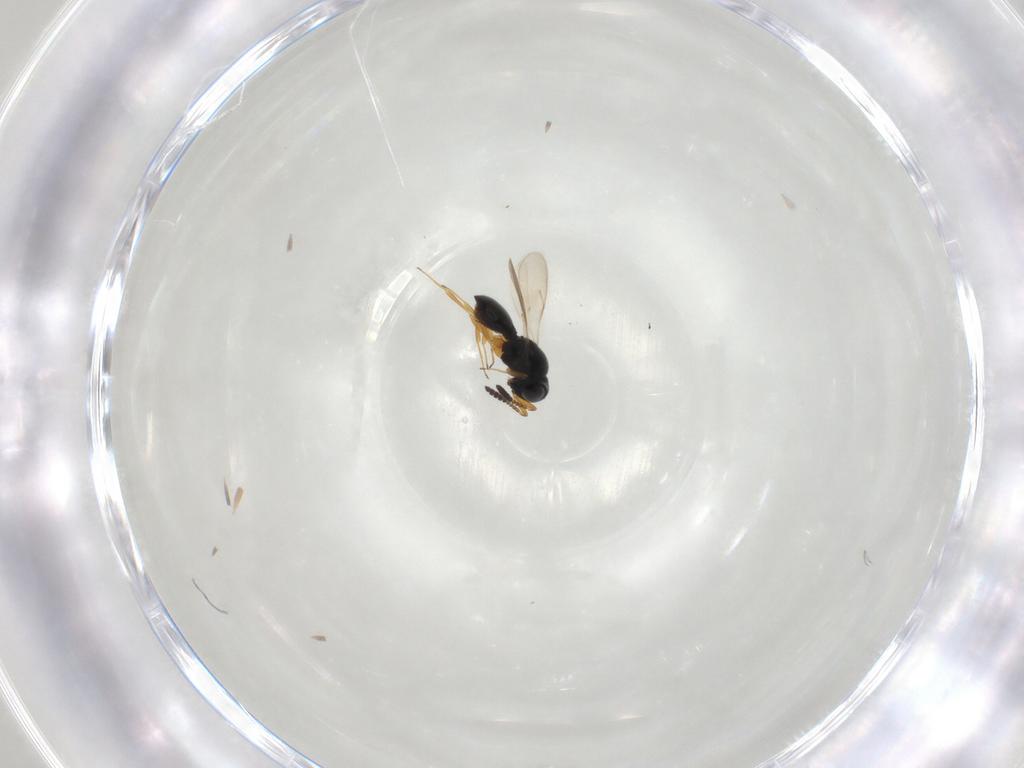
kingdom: Animalia
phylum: Arthropoda
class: Insecta
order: Hymenoptera
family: Scelionidae
